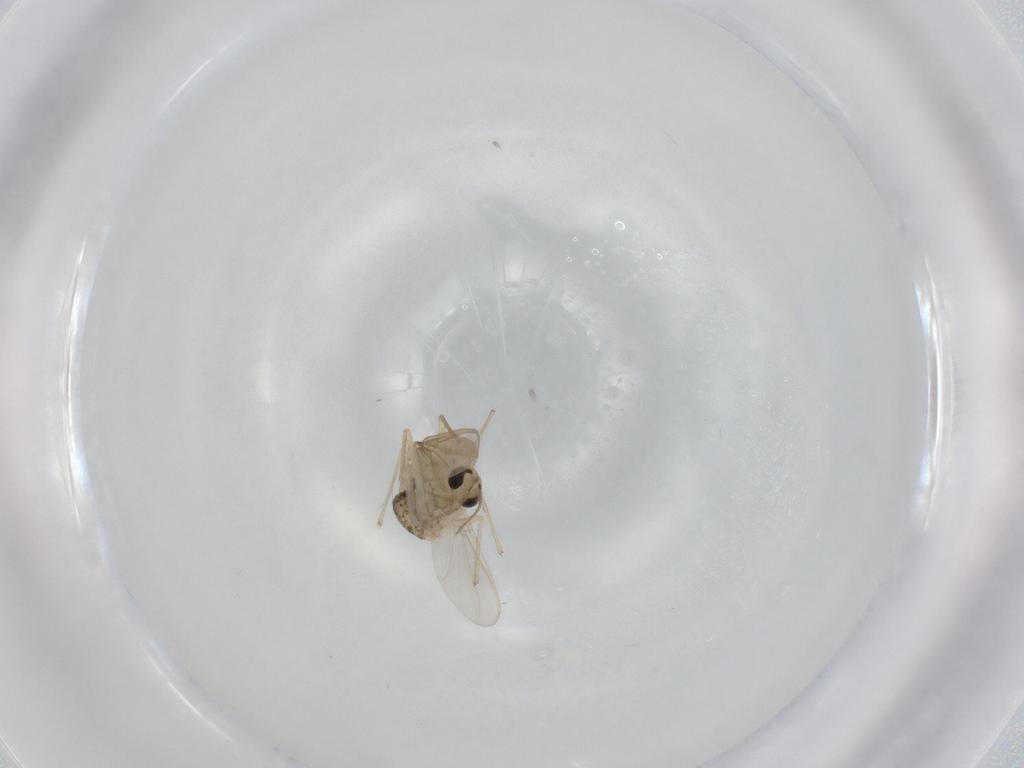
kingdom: Animalia
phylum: Arthropoda
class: Insecta
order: Diptera
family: Chironomidae
